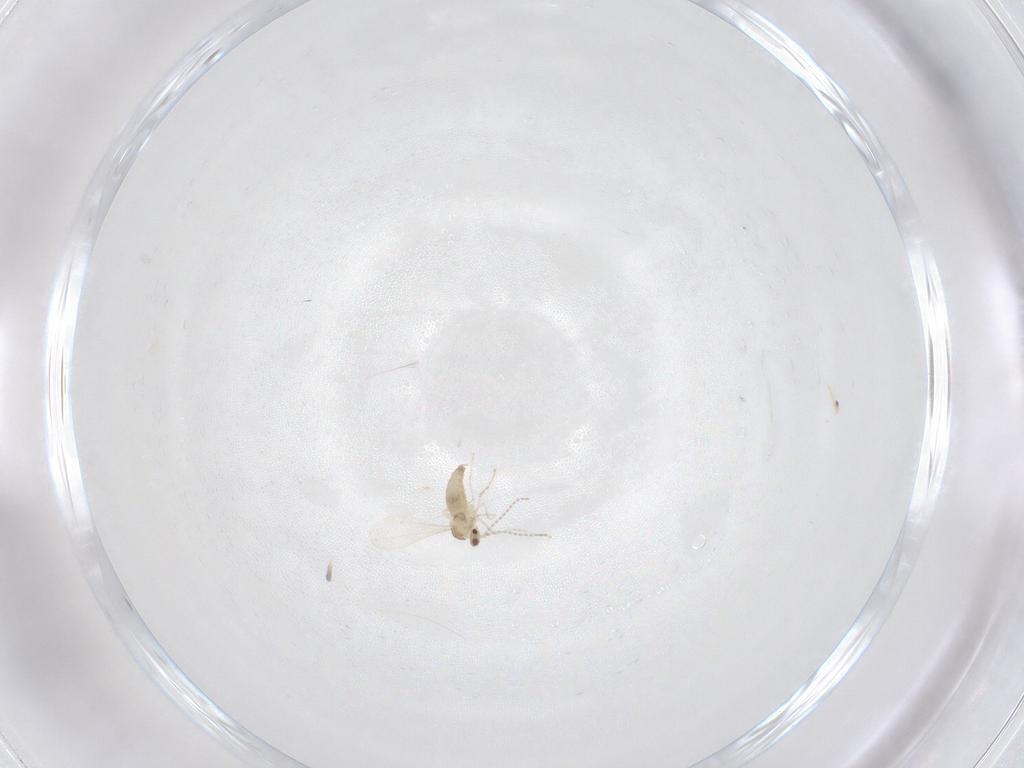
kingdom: Animalia
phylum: Arthropoda
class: Insecta
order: Diptera
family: Cecidomyiidae
